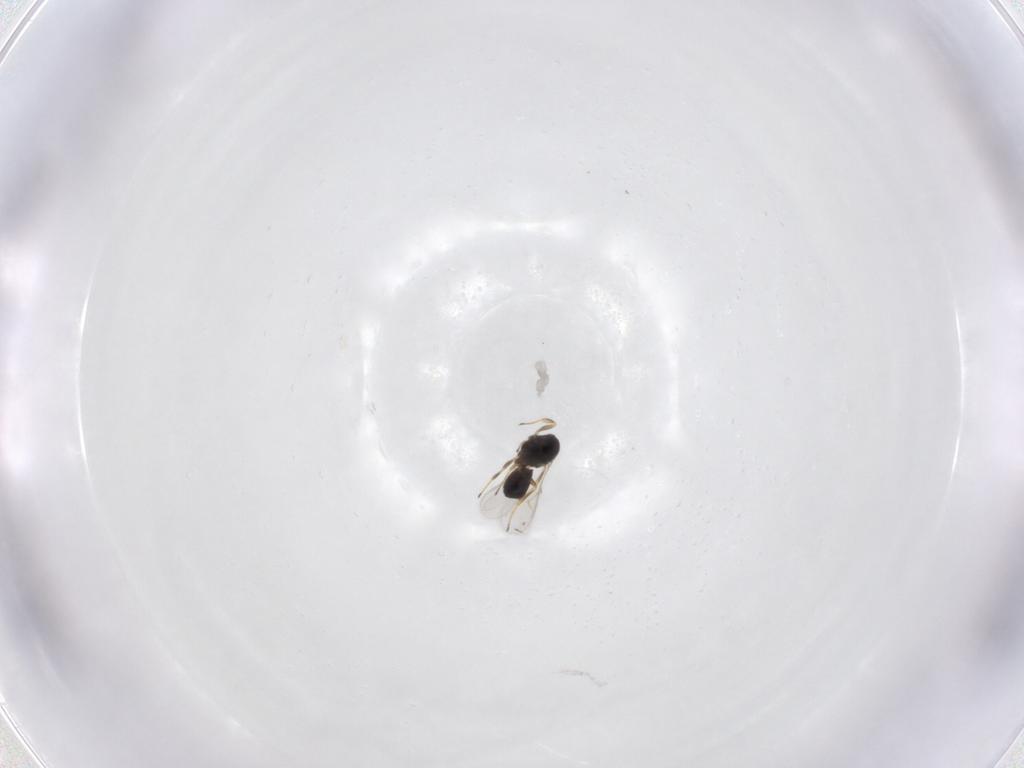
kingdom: Animalia
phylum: Arthropoda
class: Insecta
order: Hymenoptera
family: Scelionidae
